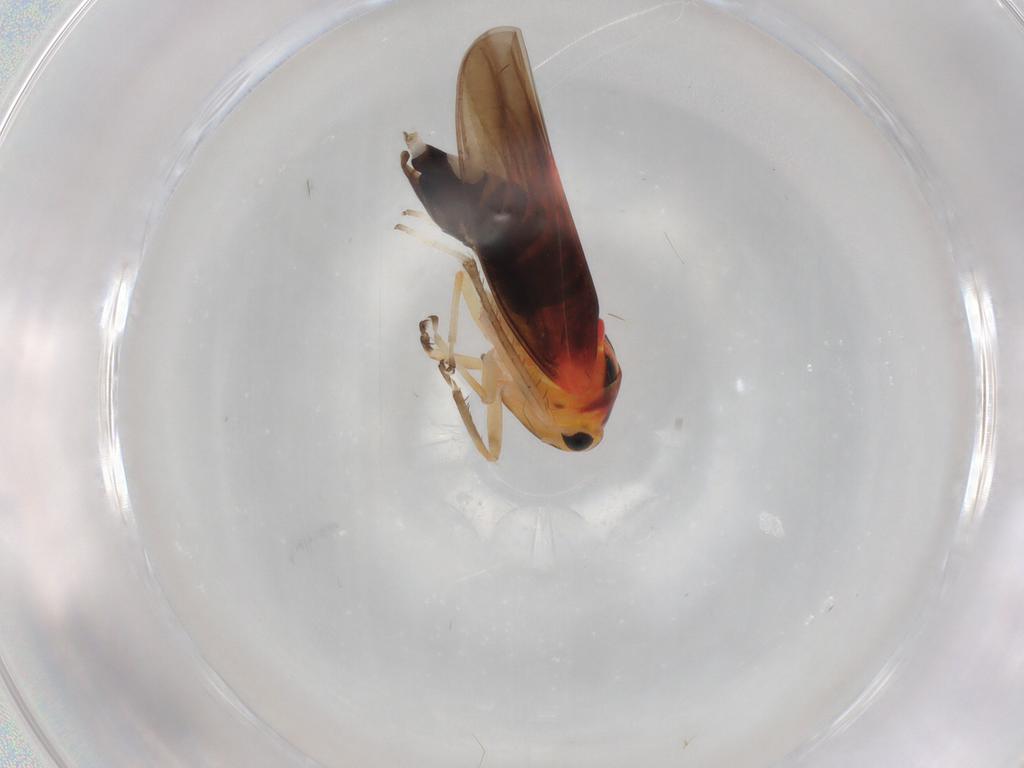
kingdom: Animalia
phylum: Arthropoda
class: Insecta
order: Hemiptera
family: Cicadellidae
